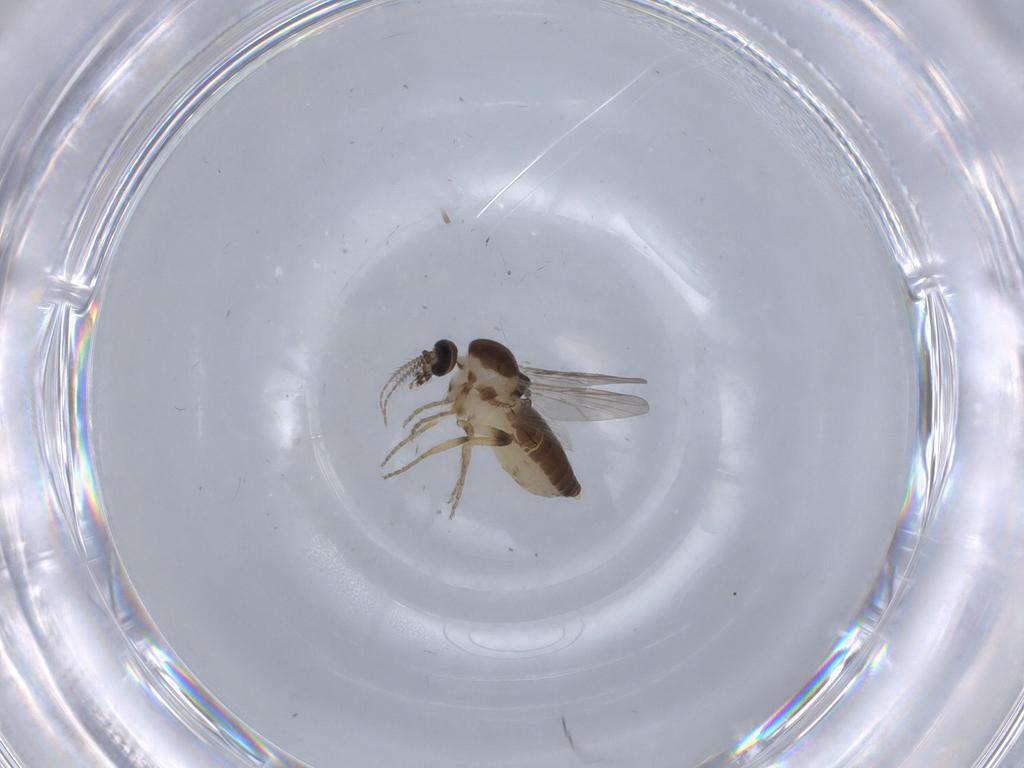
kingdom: Animalia
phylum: Arthropoda
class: Insecta
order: Diptera
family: Ceratopogonidae
